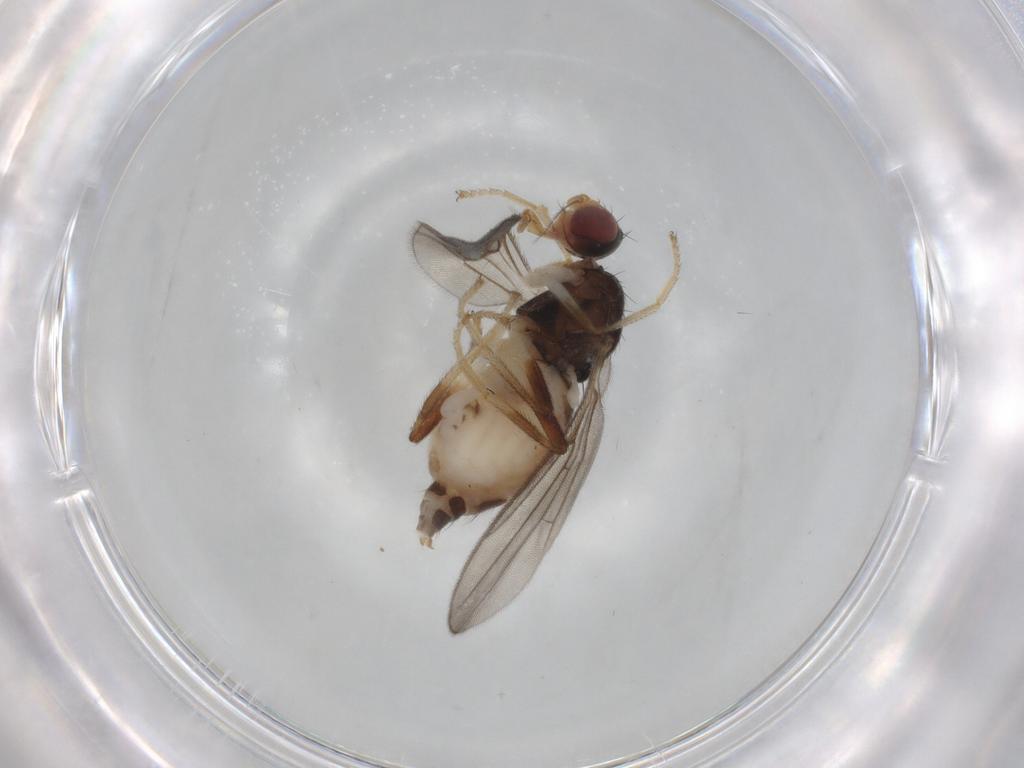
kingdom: Animalia
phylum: Arthropoda
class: Insecta
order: Diptera
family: Chloropidae
